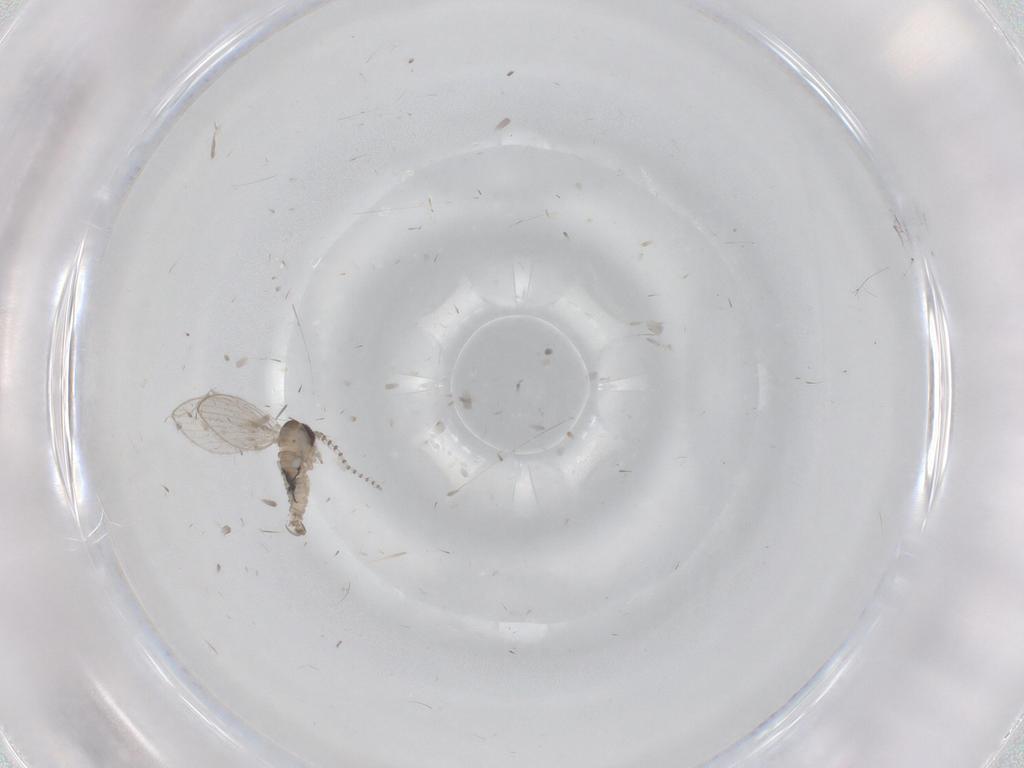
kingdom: Animalia
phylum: Arthropoda
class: Insecta
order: Diptera
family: Psychodidae
